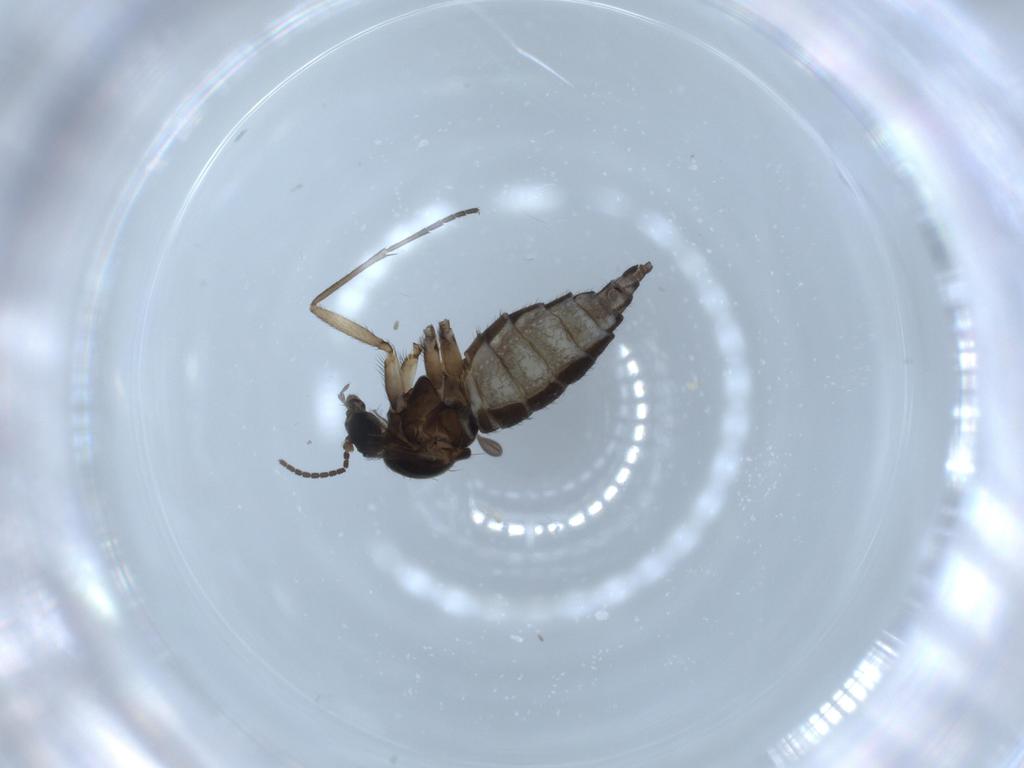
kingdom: Animalia
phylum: Arthropoda
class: Insecta
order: Diptera
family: Sciaridae
